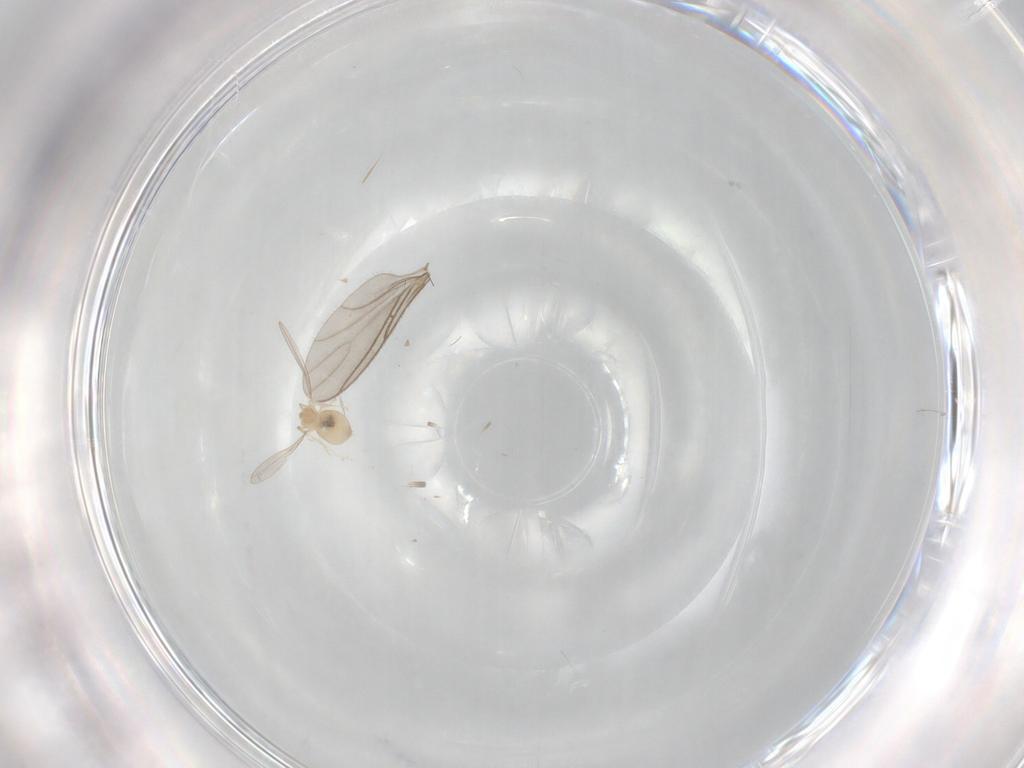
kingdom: Animalia
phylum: Arthropoda
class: Insecta
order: Diptera
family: Cecidomyiidae
